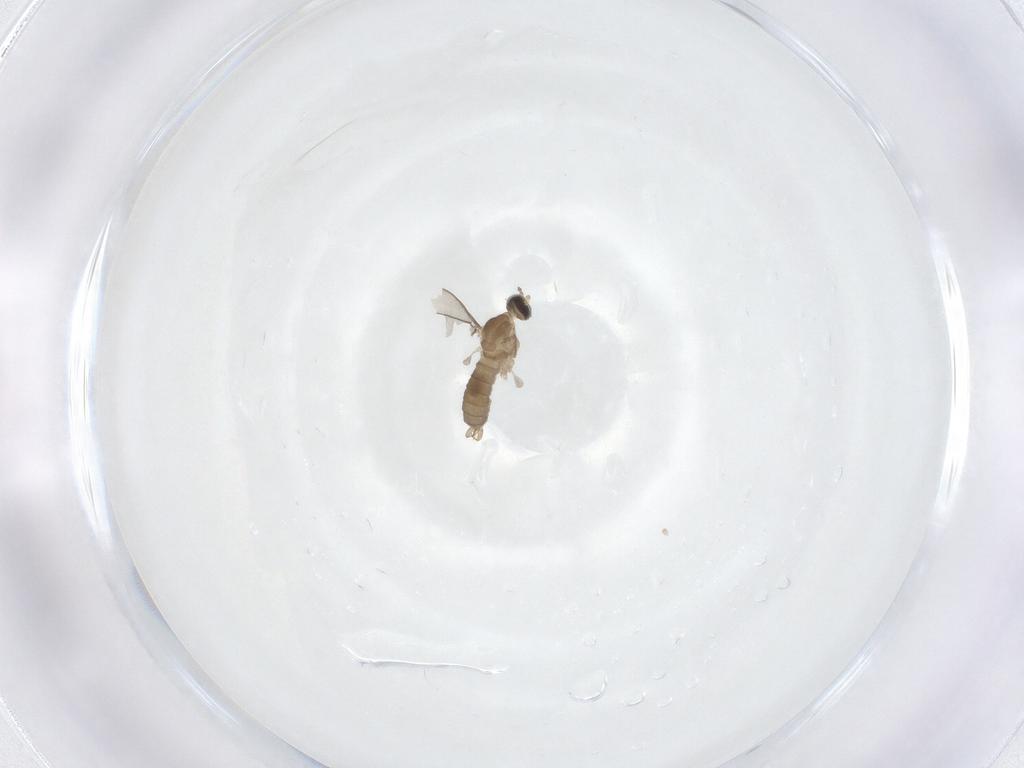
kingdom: Animalia
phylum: Arthropoda
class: Insecta
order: Diptera
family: Cecidomyiidae
